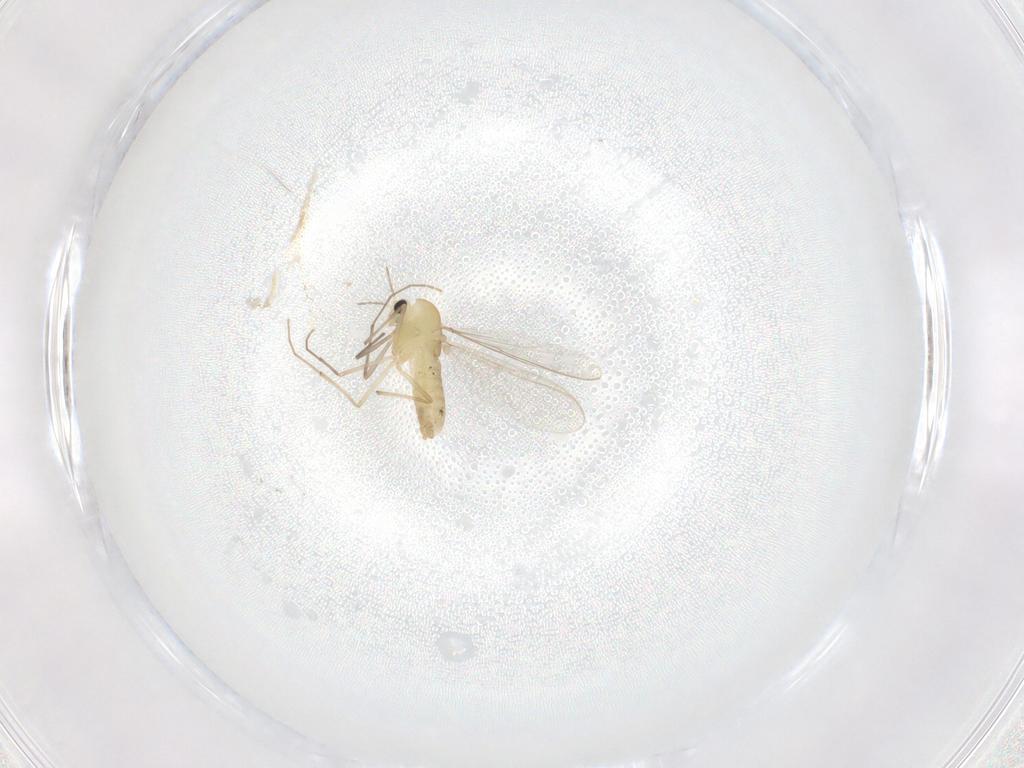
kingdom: Animalia
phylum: Arthropoda
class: Insecta
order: Diptera
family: Chironomidae
